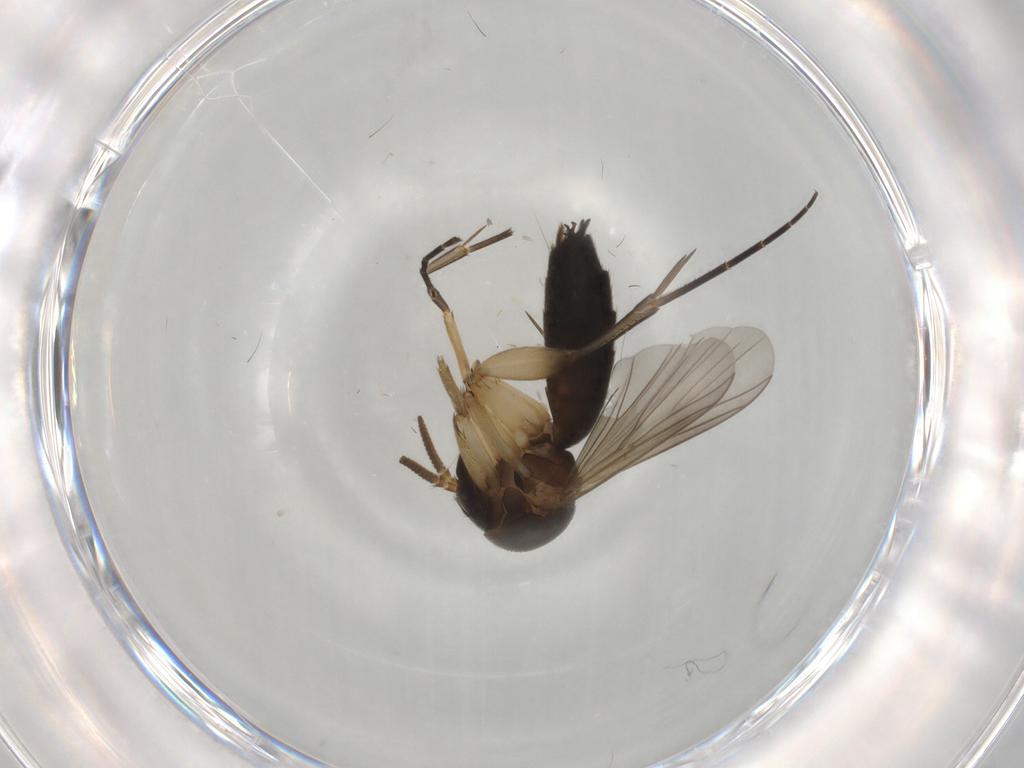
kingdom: Animalia
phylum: Arthropoda
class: Insecta
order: Diptera
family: Mycetophilidae
